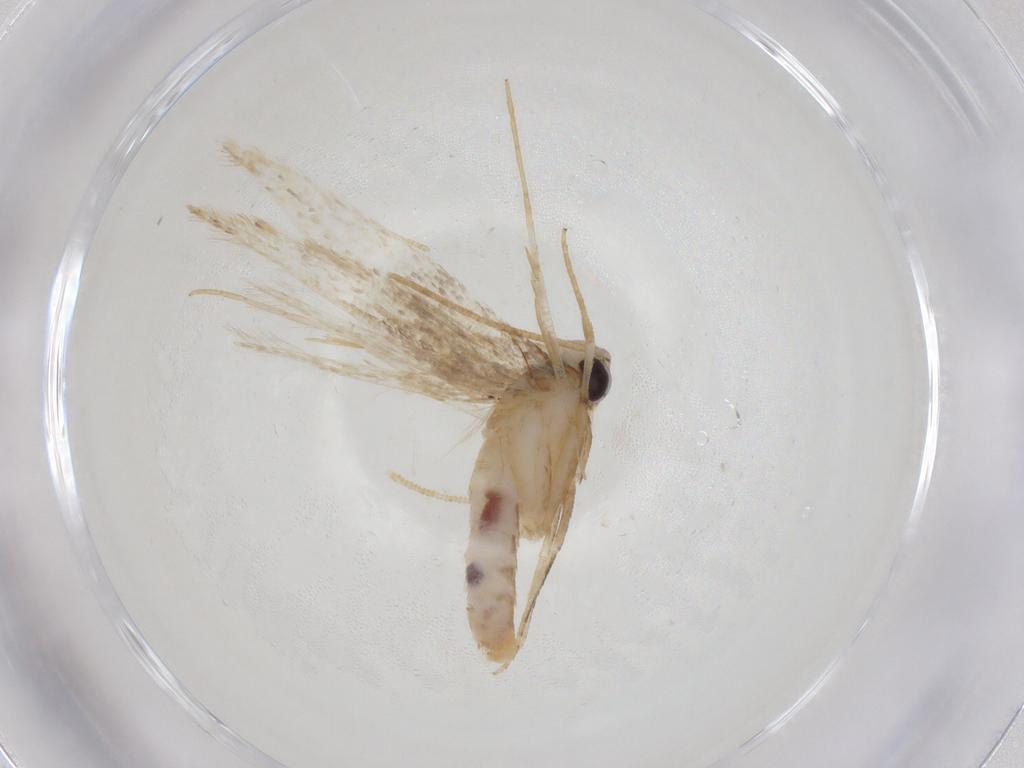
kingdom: Animalia
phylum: Arthropoda
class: Insecta
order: Lepidoptera
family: Coleophoridae
